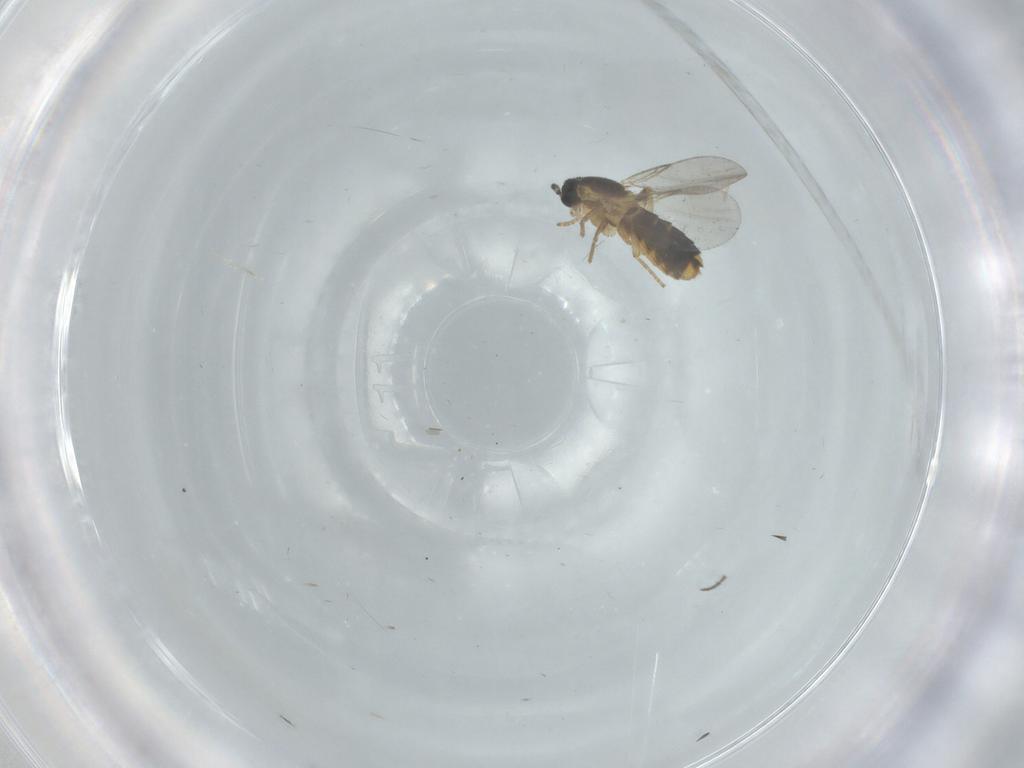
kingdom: Animalia
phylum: Arthropoda
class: Insecta
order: Diptera
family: Scatopsidae
